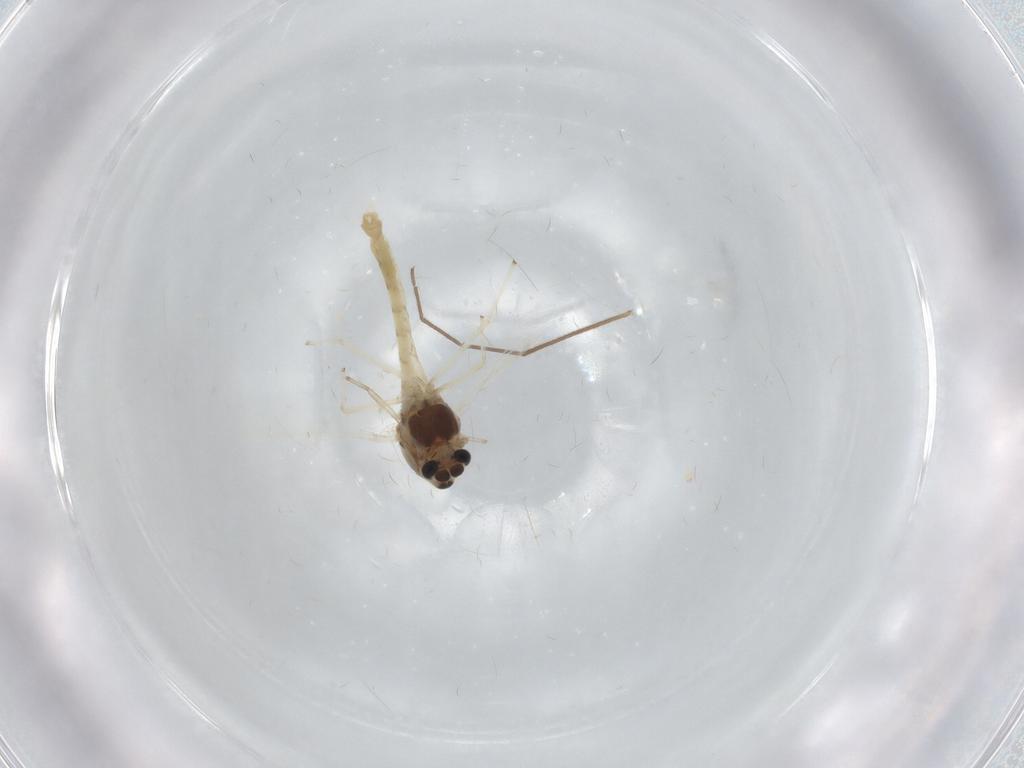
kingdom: Animalia
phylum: Arthropoda
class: Insecta
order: Diptera
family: Chironomidae
